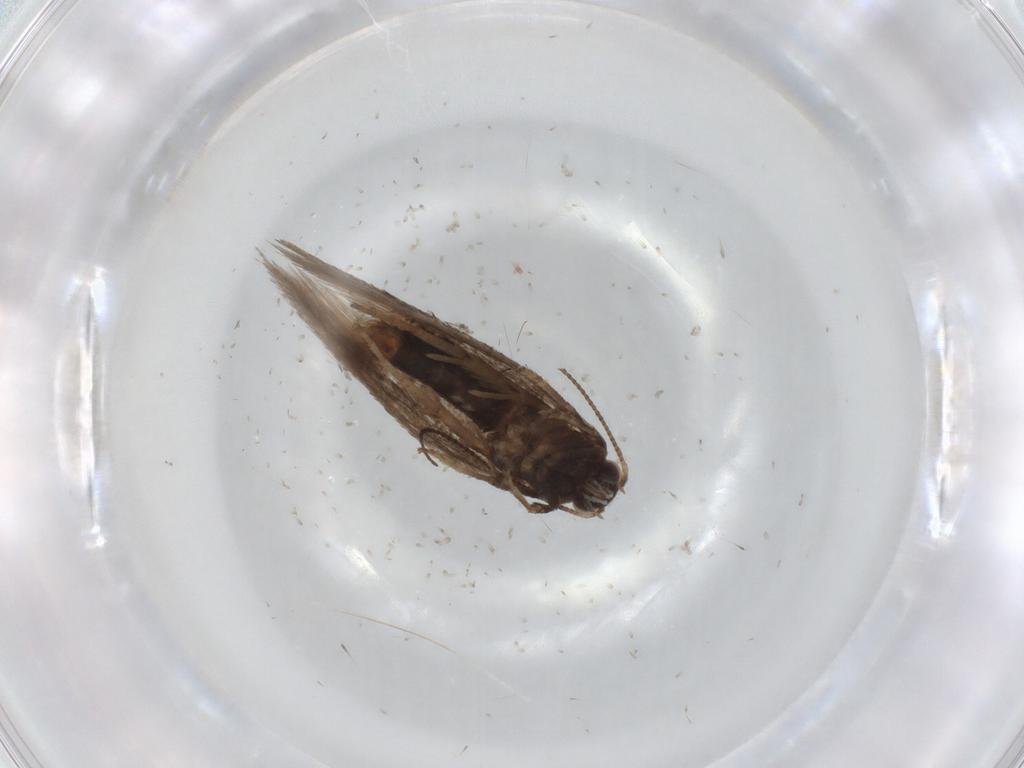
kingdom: Animalia
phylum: Arthropoda
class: Insecta
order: Lepidoptera
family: Nepticulidae
